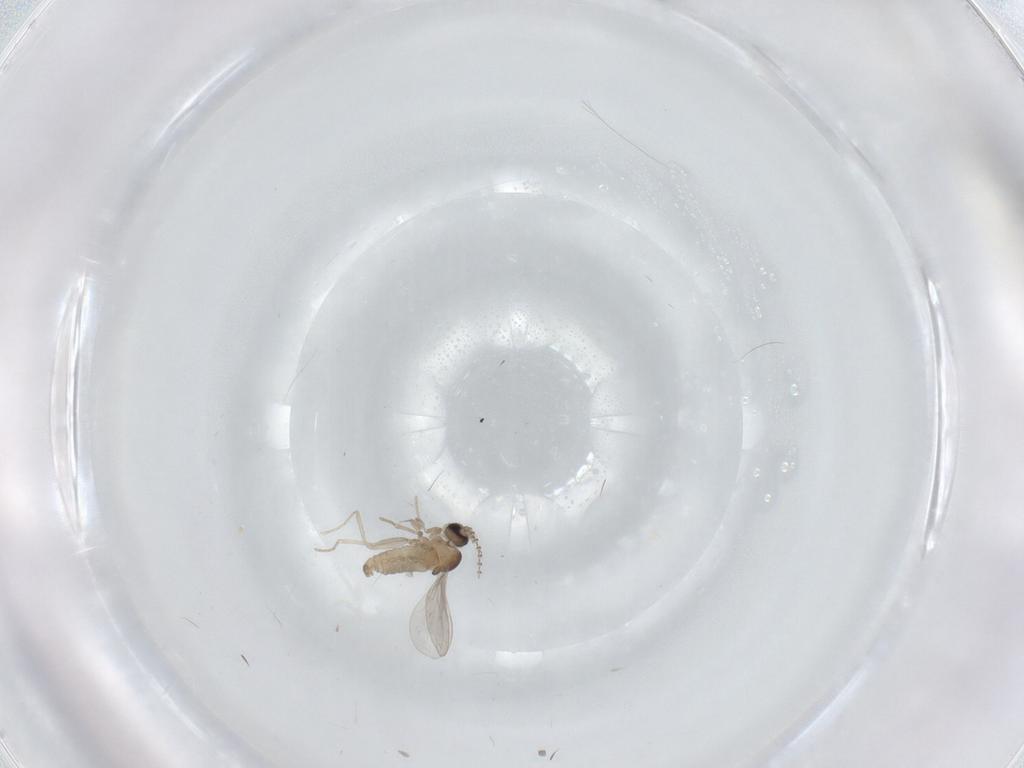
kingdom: Animalia
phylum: Arthropoda
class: Insecta
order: Diptera
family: Cecidomyiidae
